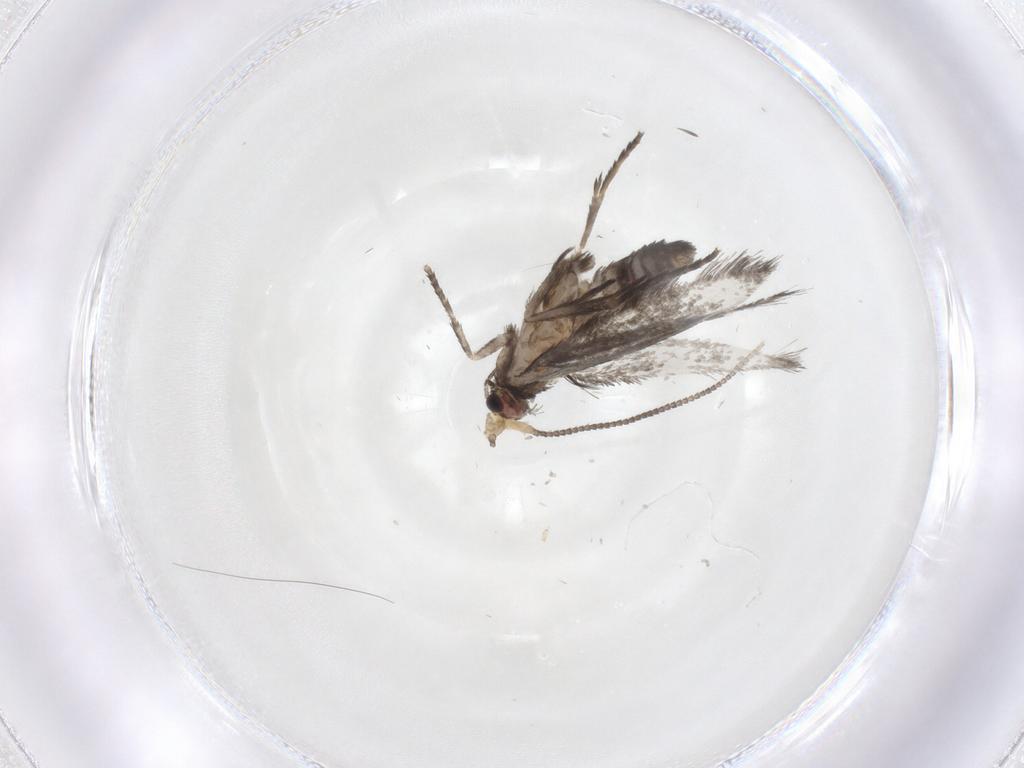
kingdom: Animalia
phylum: Arthropoda
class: Insecta
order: Lepidoptera
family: Nepticulidae
